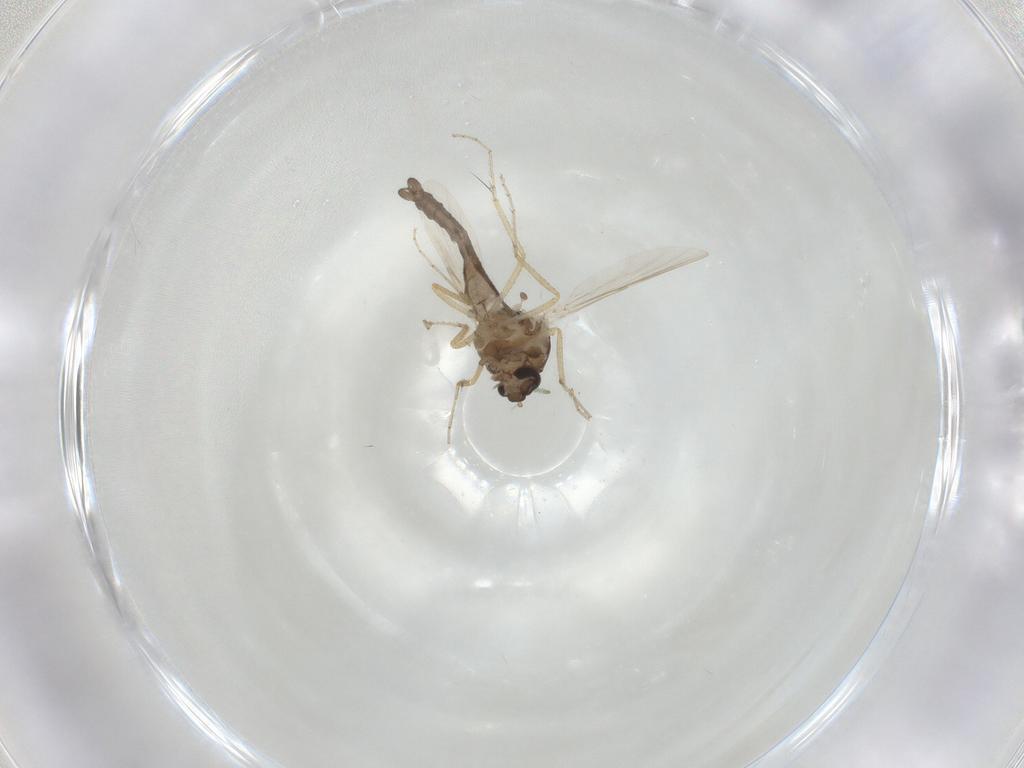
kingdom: Animalia
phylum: Arthropoda
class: Insecta
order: Diptera
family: Ceratopogonidae
